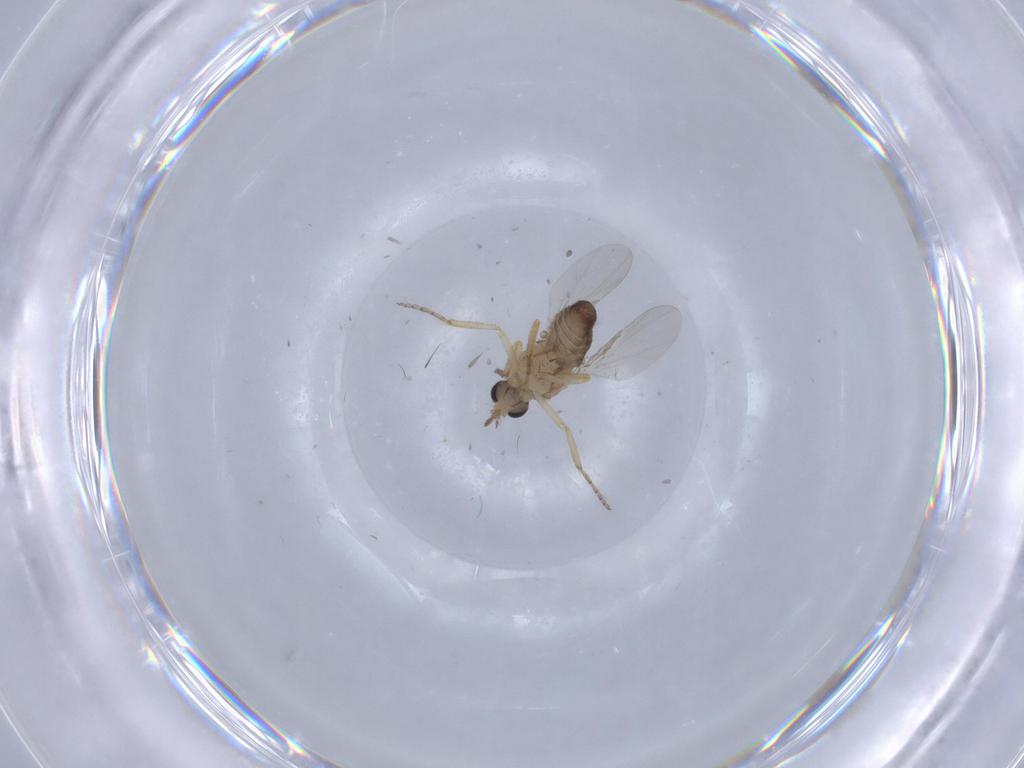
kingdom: Animalia
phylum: Arthropoda
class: Insecta
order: Diptera
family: Ceratopogonidae
